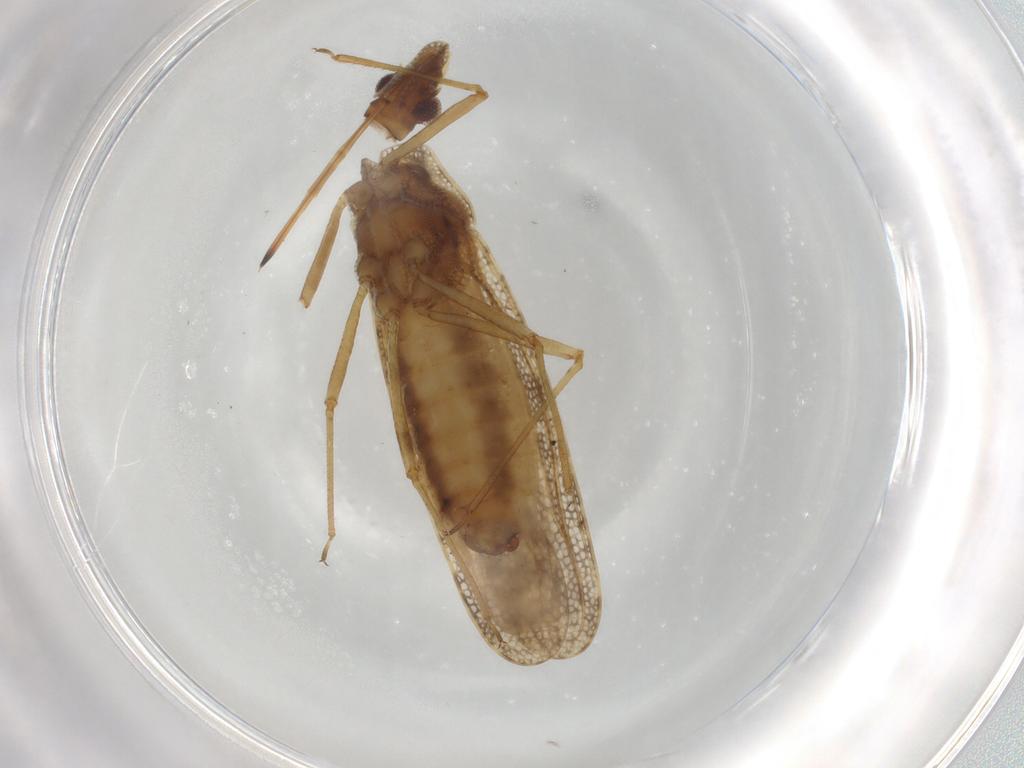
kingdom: Animalia
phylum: Arthropoda
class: Insecta
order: Hemiptera
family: Tingidae
